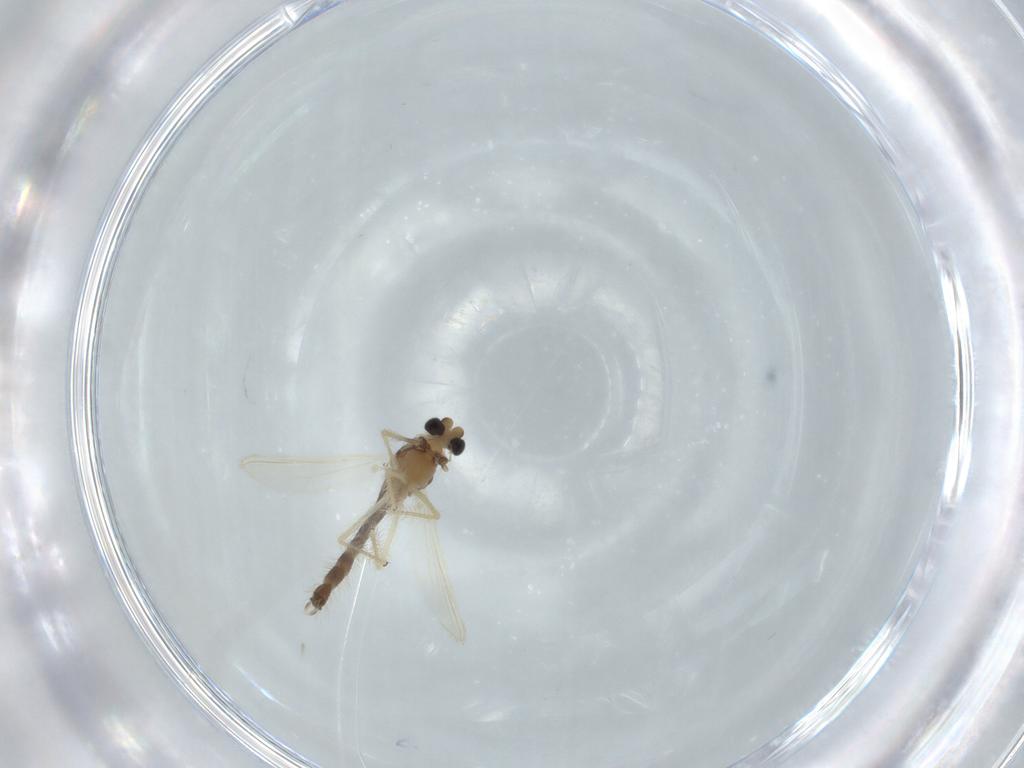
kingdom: Animalia
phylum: Arthropoda
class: Insecta
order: Diptera
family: Chironomidae
